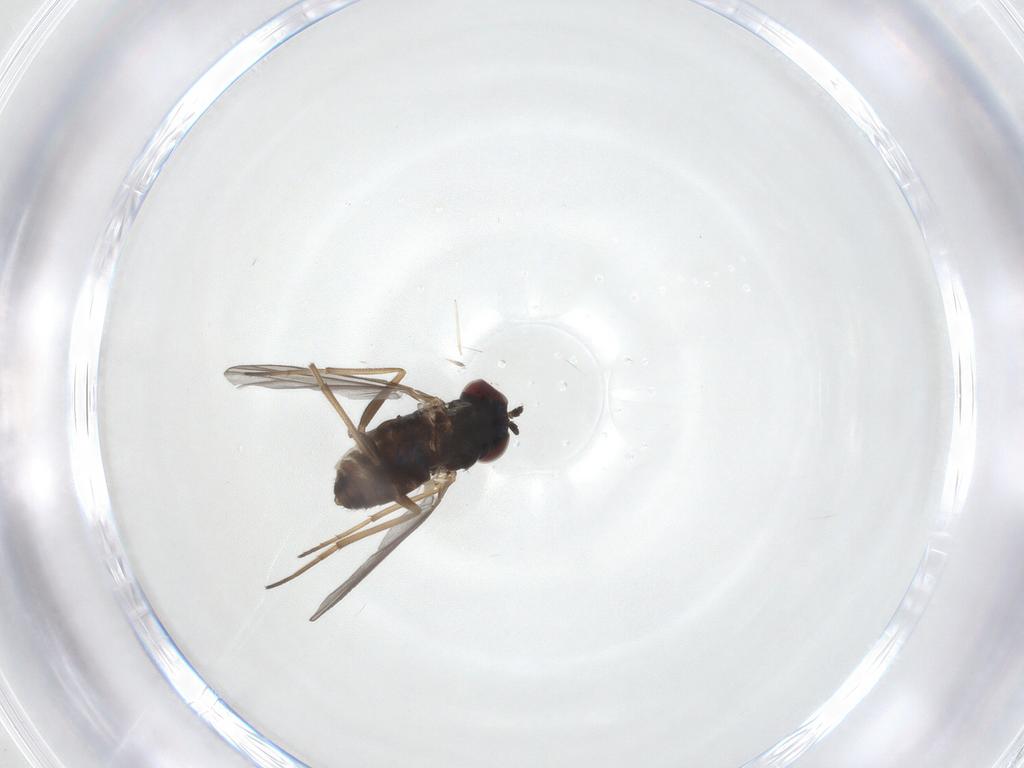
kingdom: Animalia
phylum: Arthropoda
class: Insecta
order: Diptera
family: Dolichopodidae
